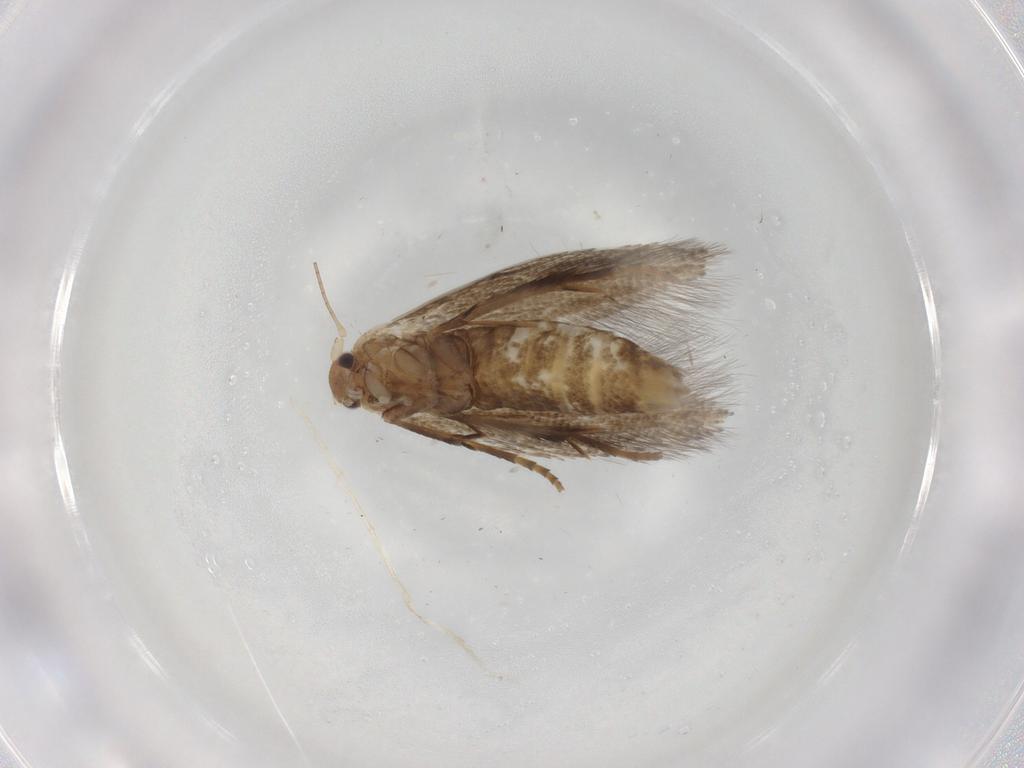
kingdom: Animalia
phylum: Arthropoda
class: Insecta
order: Lepidoptera
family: Bucculatricidae
